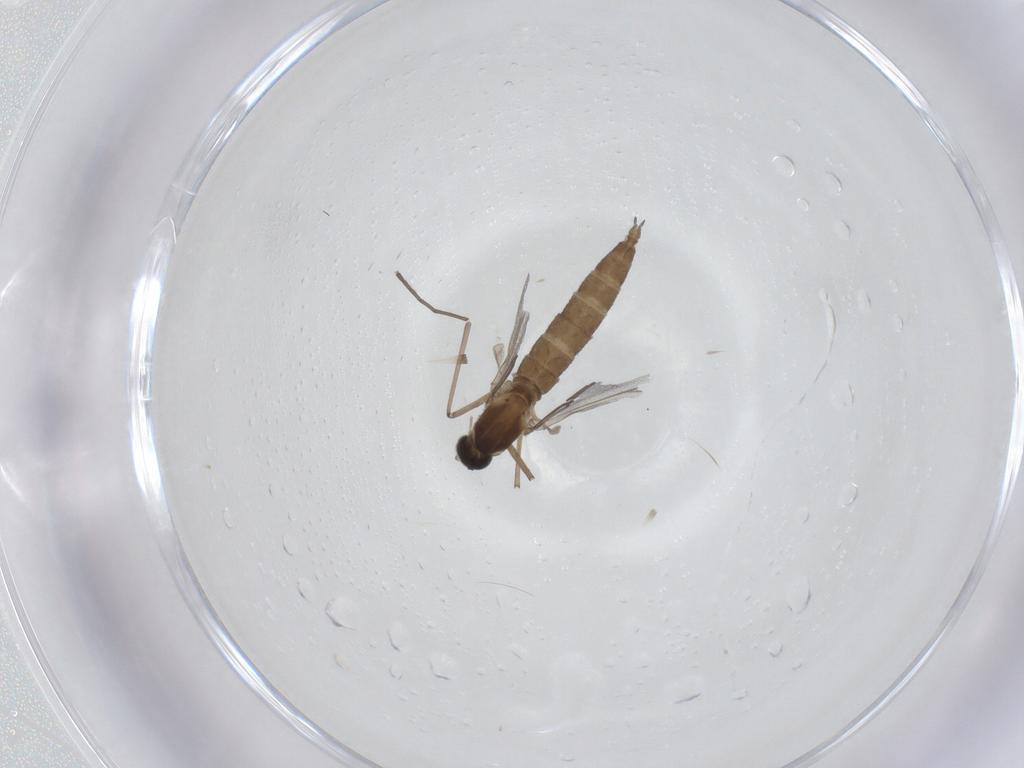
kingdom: Animalia
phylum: Arthropoda
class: Insecta
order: Diptera
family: Cecidomyiidae
